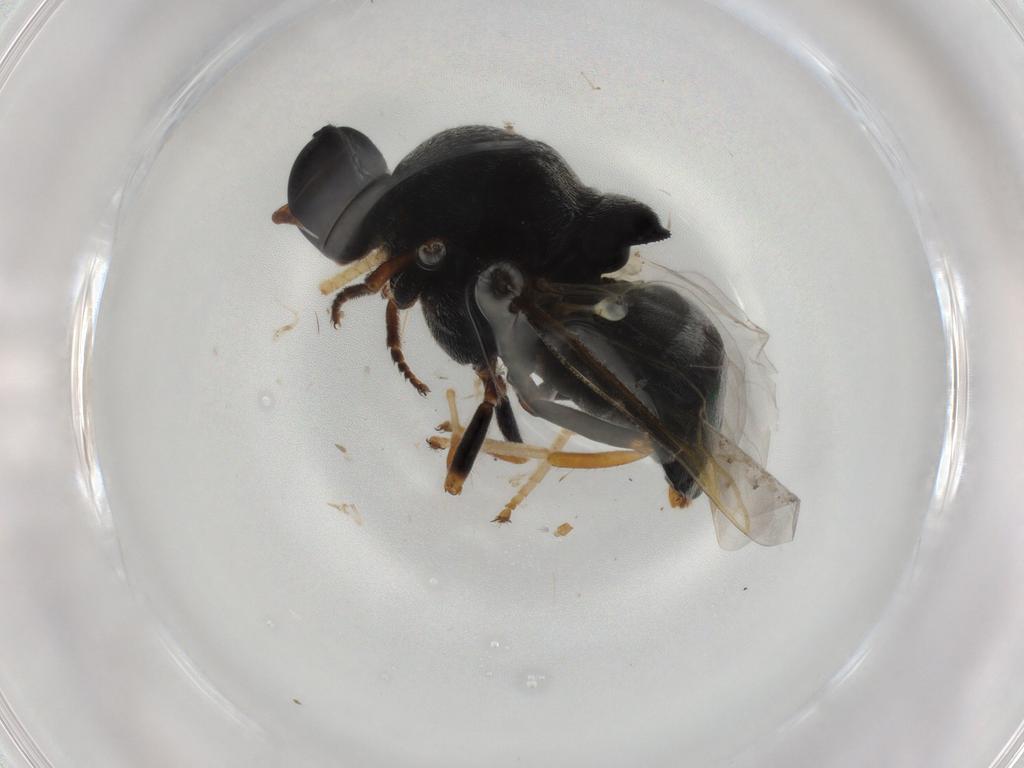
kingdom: Animalia
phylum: Arthropoda
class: Insecta
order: Diptera
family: Stratiomyidae
